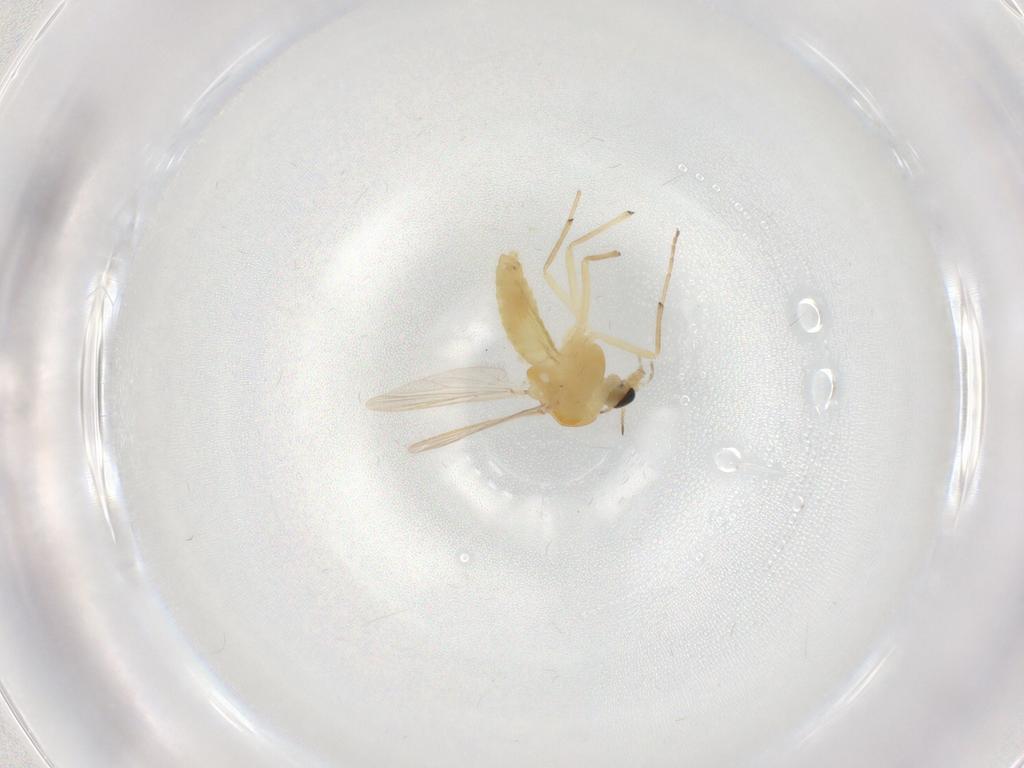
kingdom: Animalia
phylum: Arthropoda
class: Insecta
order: Diptera
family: Chironomidae
